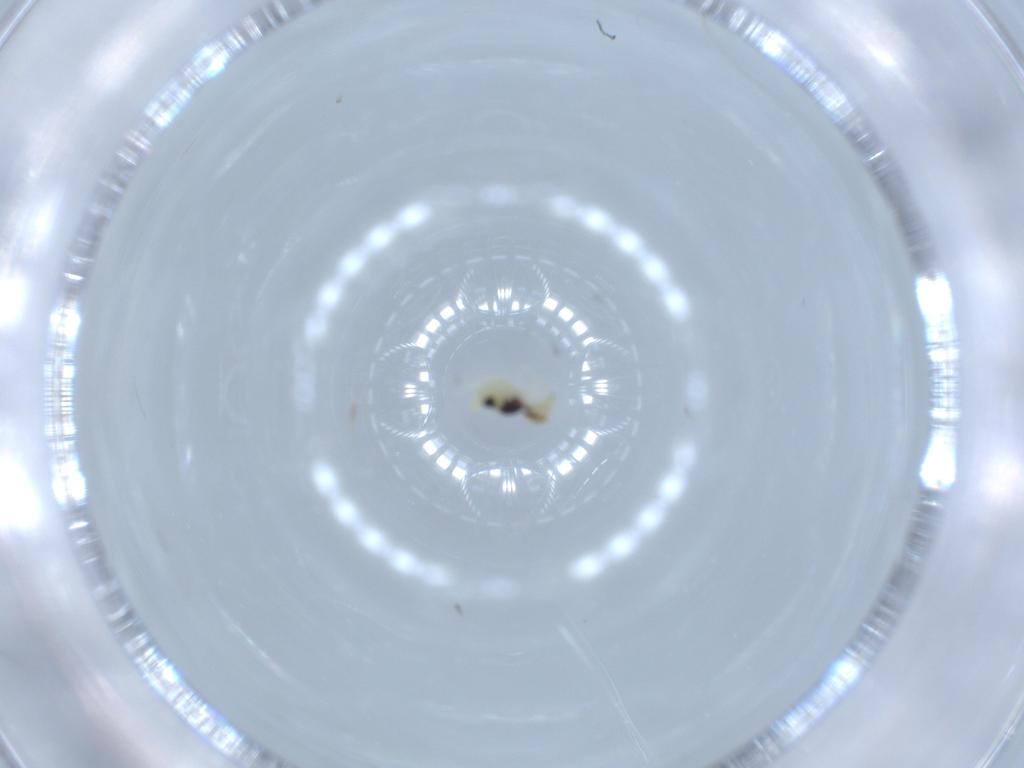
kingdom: Animalia
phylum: Arthropoda
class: Collembola
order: Symphypleona
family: Bourletiellidae
